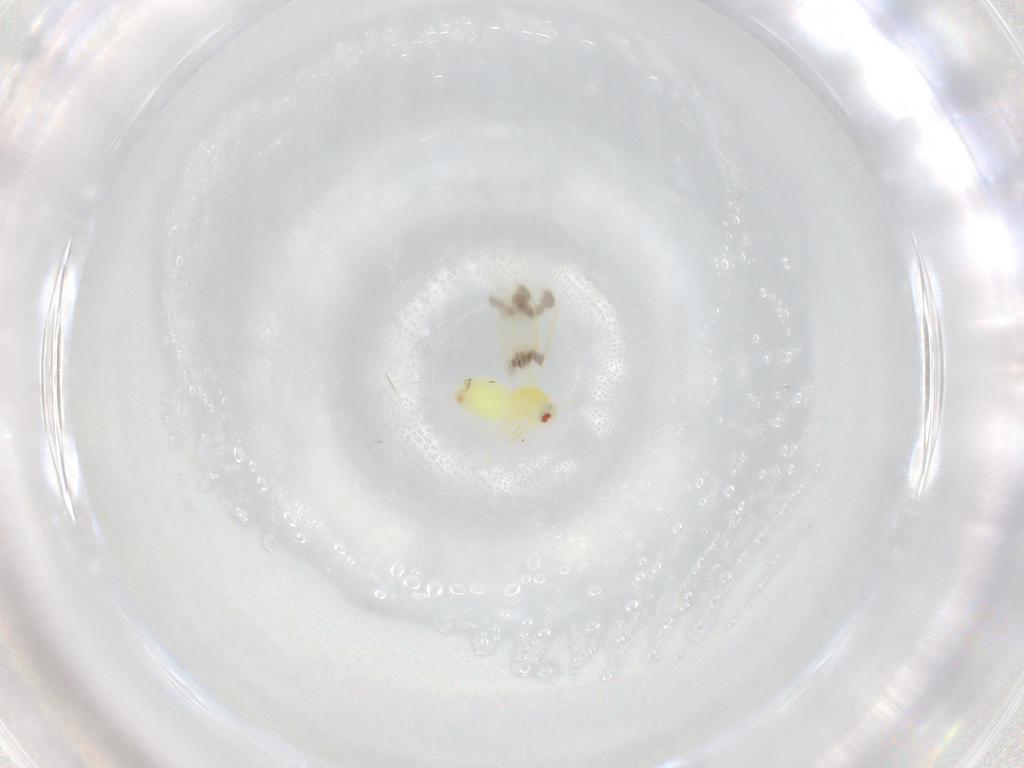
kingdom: Animalia
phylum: Arthropoda
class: Insecta
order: Hemiptera
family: Aleyrodidae
